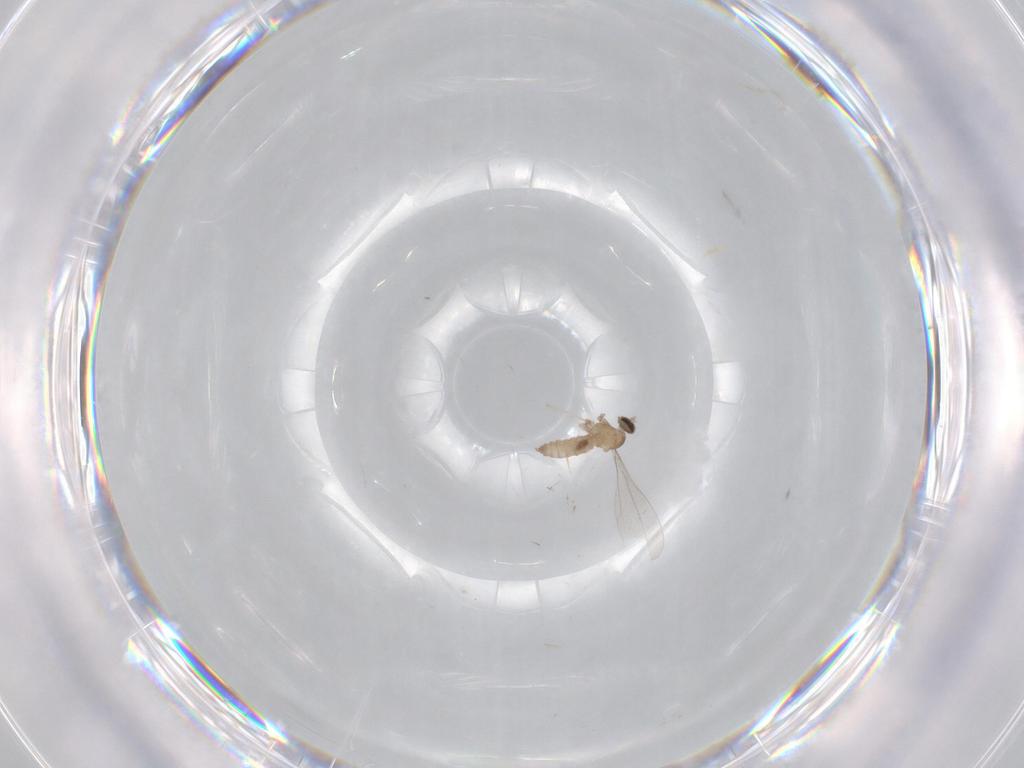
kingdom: Animalia
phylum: Arthropoda
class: Insecta
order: Diptera
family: Cecidomyiidae
